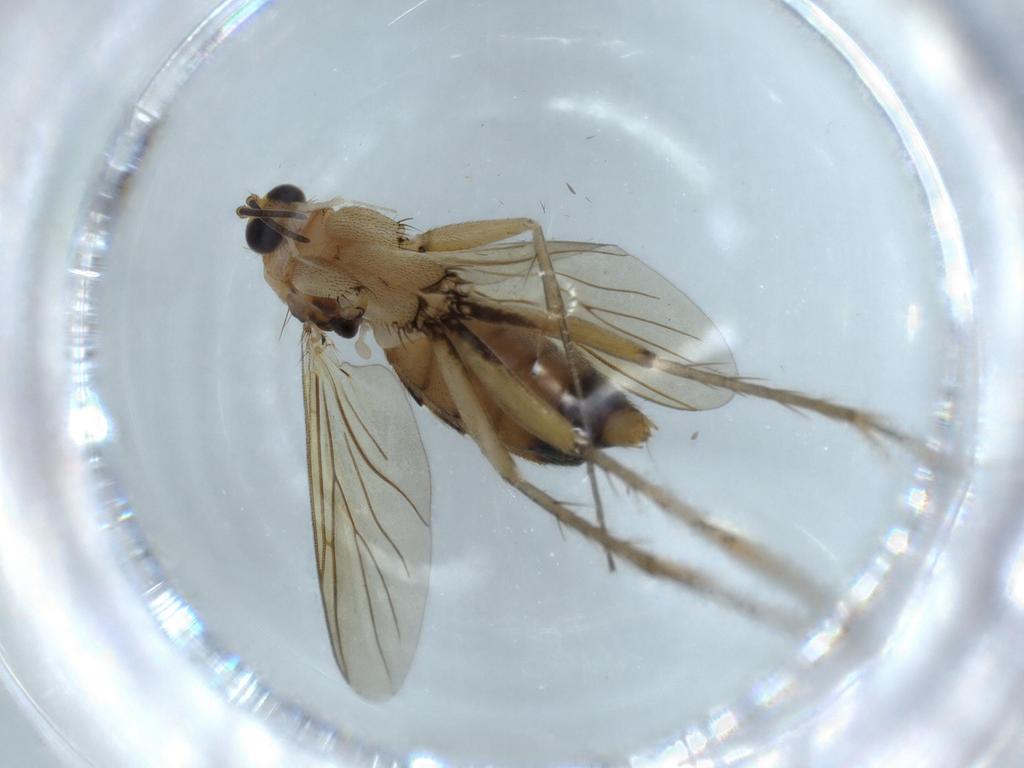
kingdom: Animalia
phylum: Arthropoda
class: Insecta
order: Diptera
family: Mycetophilidae
